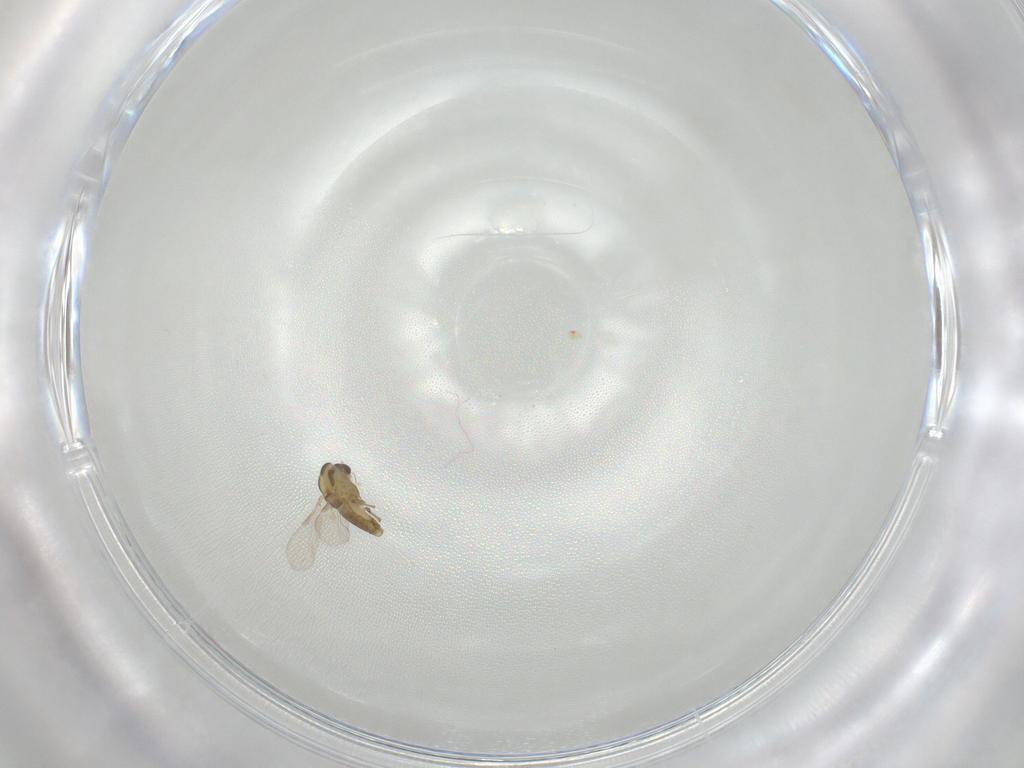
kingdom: Animalia
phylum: Arthropoda
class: Insecta
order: Diptera
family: Chironomidae
